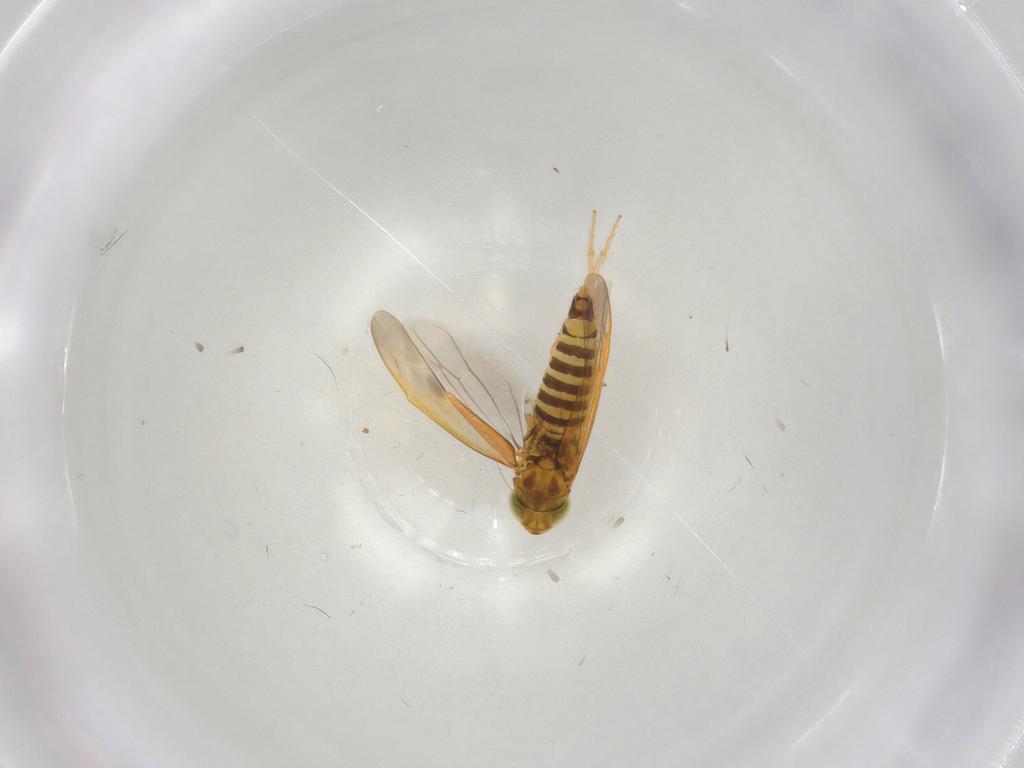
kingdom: Animalia
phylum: Arthropoda
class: Insecta
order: Hemiptera
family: Cicadellidae
